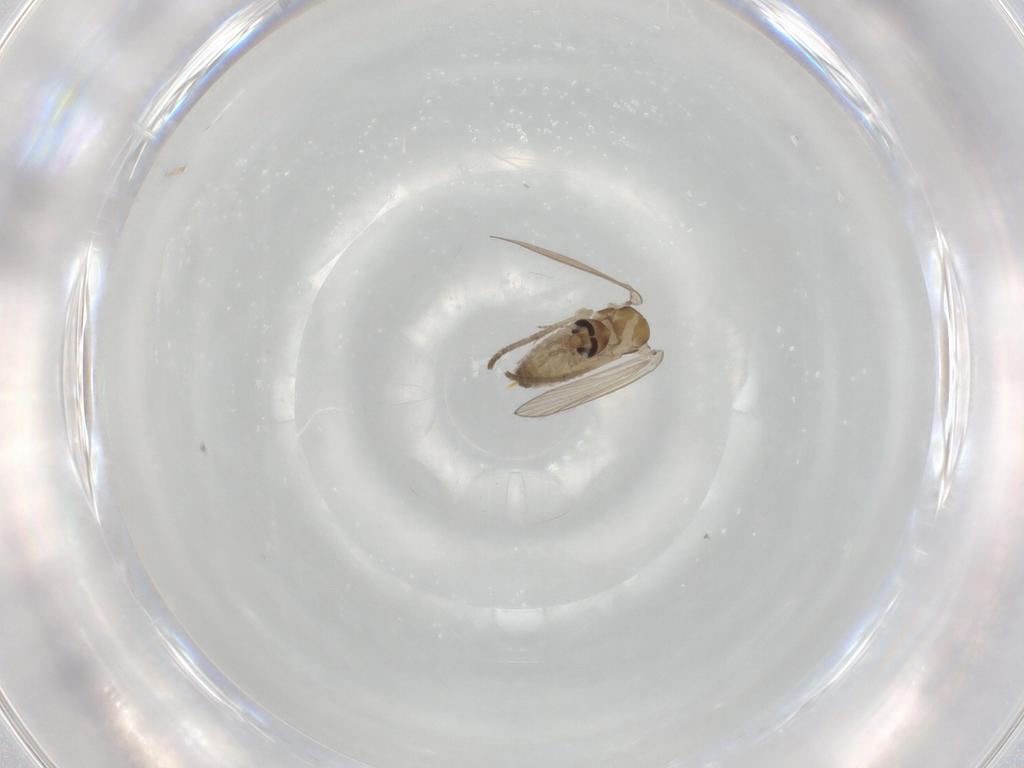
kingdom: Animalia
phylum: Arthropoda
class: Insecta
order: Diptera
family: Psychodidae
